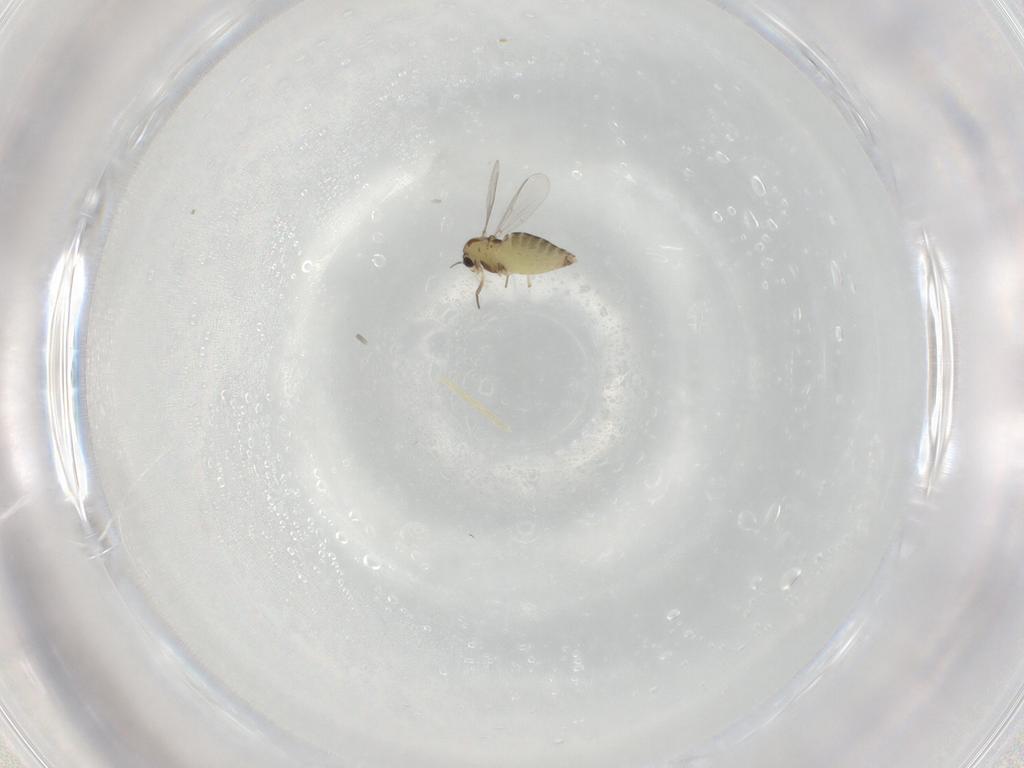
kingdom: Animalia
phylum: Arthropoda
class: Insecta
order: Diptera
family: Chironomidae
